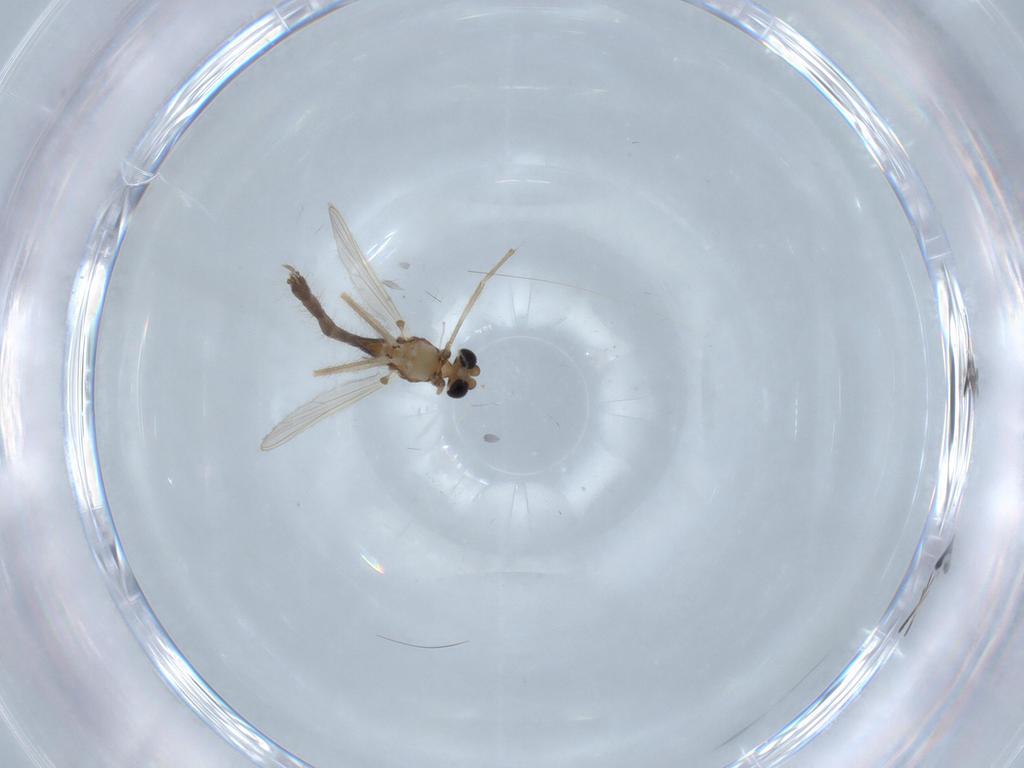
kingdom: Animalia
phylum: Arthropoda
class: Insecta
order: Diptera
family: Chironomidae
